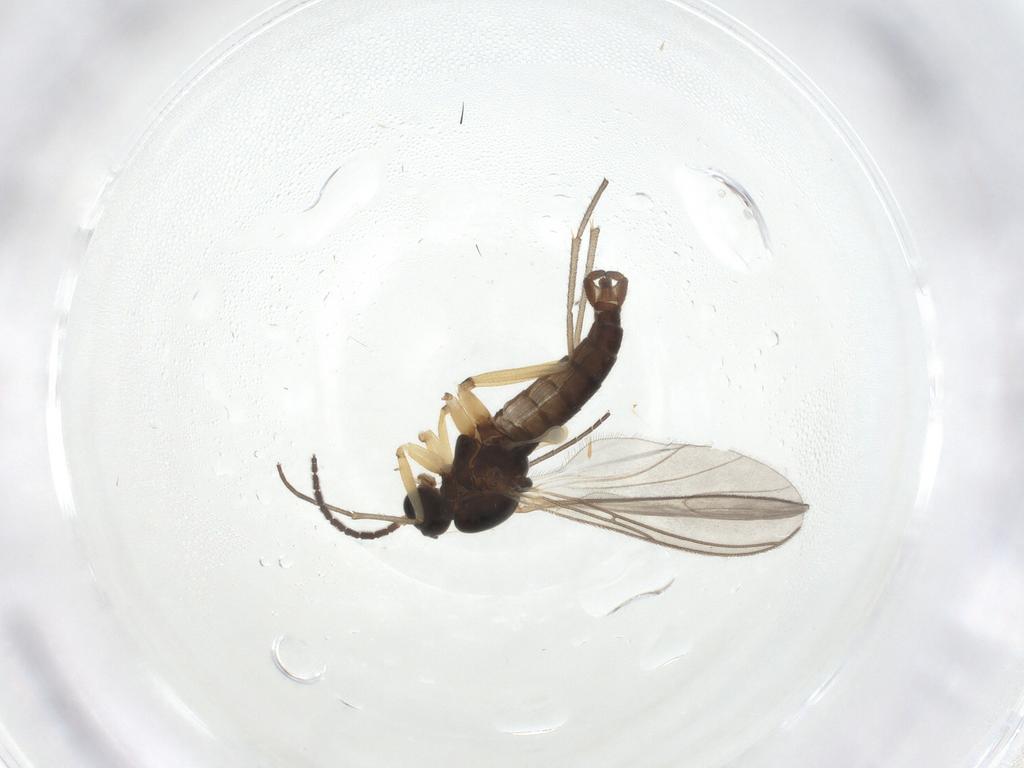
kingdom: Animalia
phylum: Arthropoda
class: Insecta
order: Diptera
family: Sciaridae
